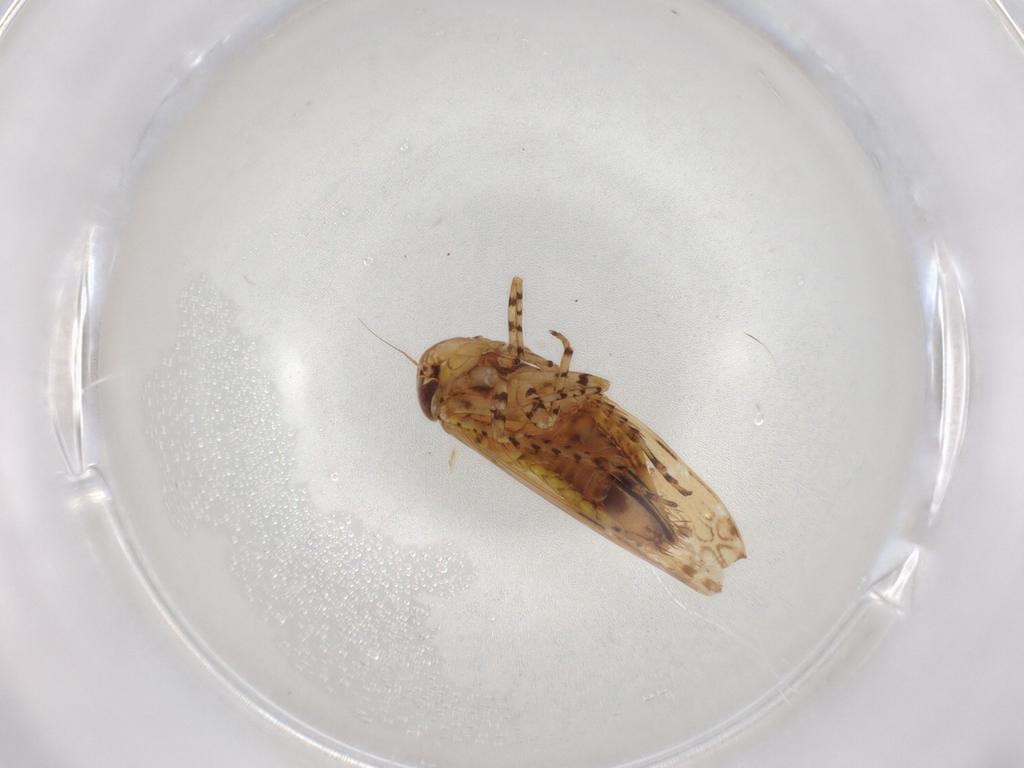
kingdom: Animalia
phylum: Arthropoda
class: Insecta
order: Hemiptera
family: Cicadellidae
